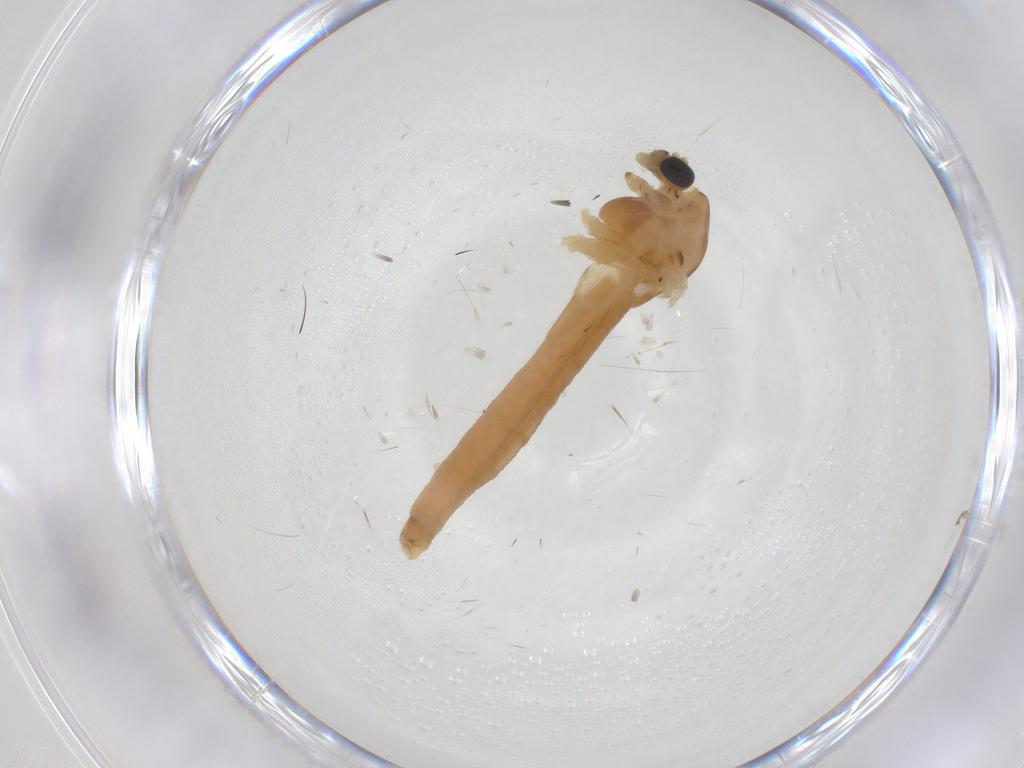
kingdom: Animalia
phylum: Arthropoda
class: Insecta
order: Diptera
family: Chironomidae
